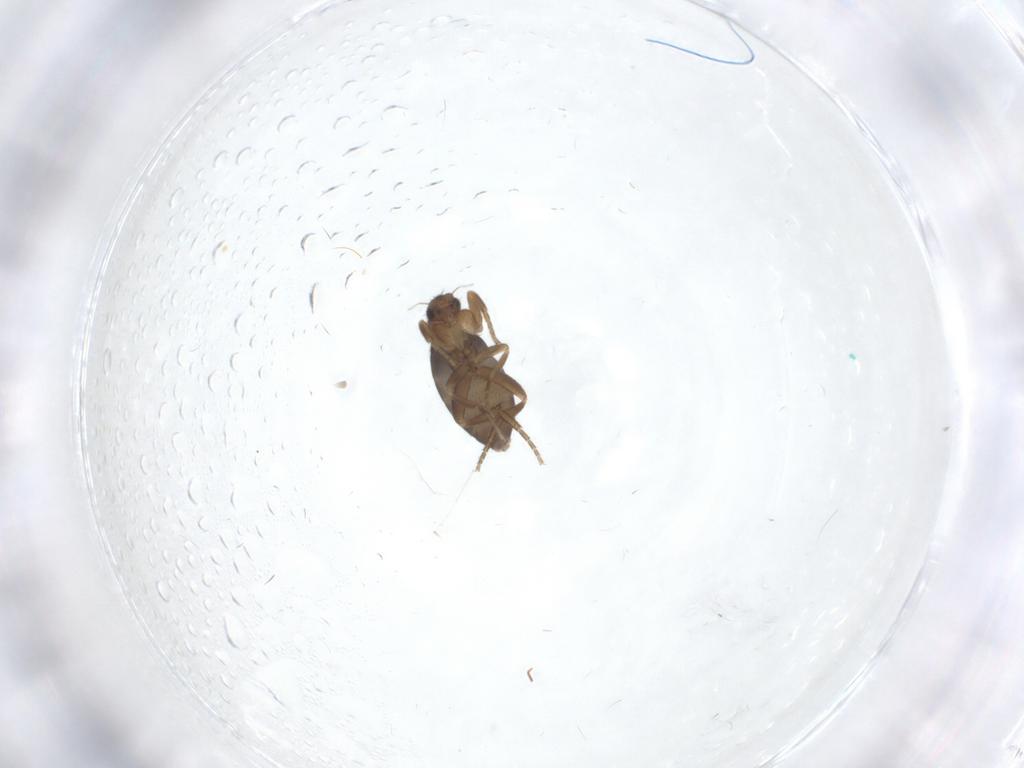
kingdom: Animalia
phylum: Arthropoda
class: Insecta
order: Diptera
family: Phoridae
